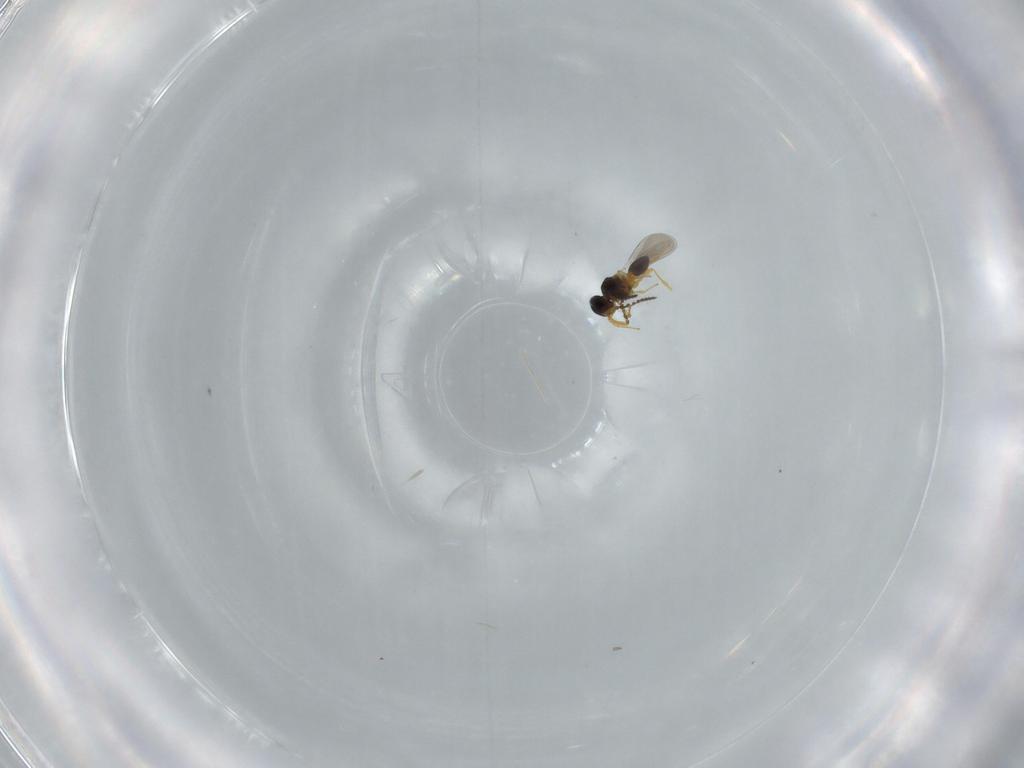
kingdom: Animalia
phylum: Arthropoda
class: Insecta
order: Hymenoptera
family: Platygastridae
